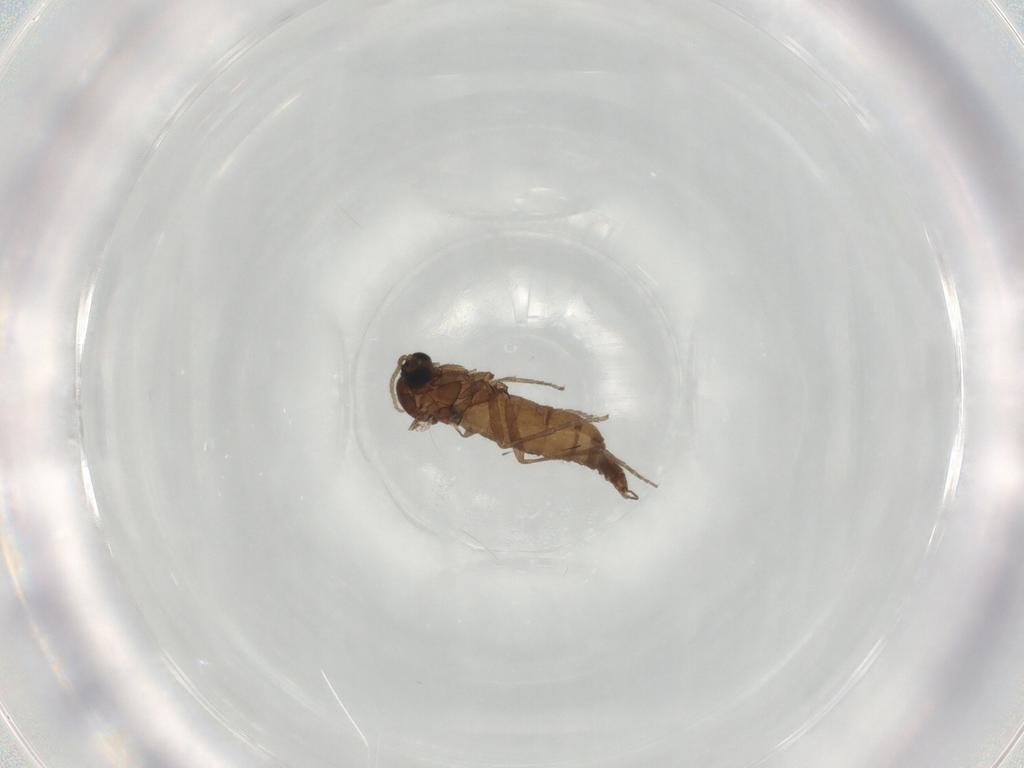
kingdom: Animalia
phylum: Arthropoda
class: Insecta
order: Diptera
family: Sciaridae
